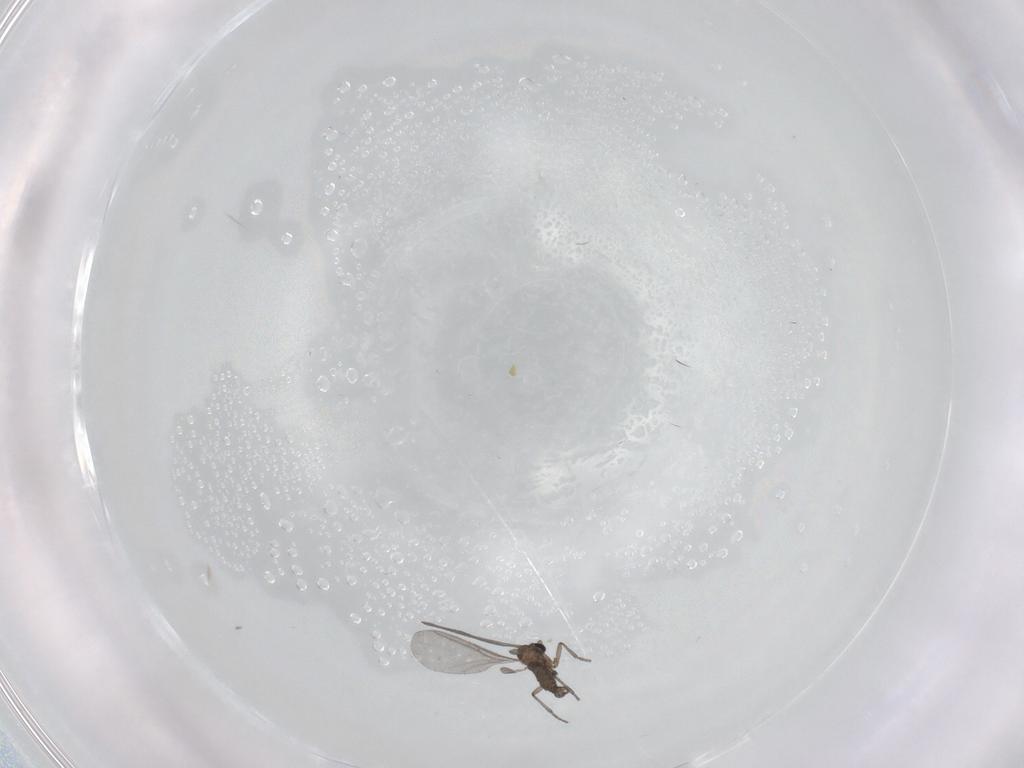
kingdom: Animalia
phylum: Arthropoda
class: Insecta
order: Diptera
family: Sciaridae
